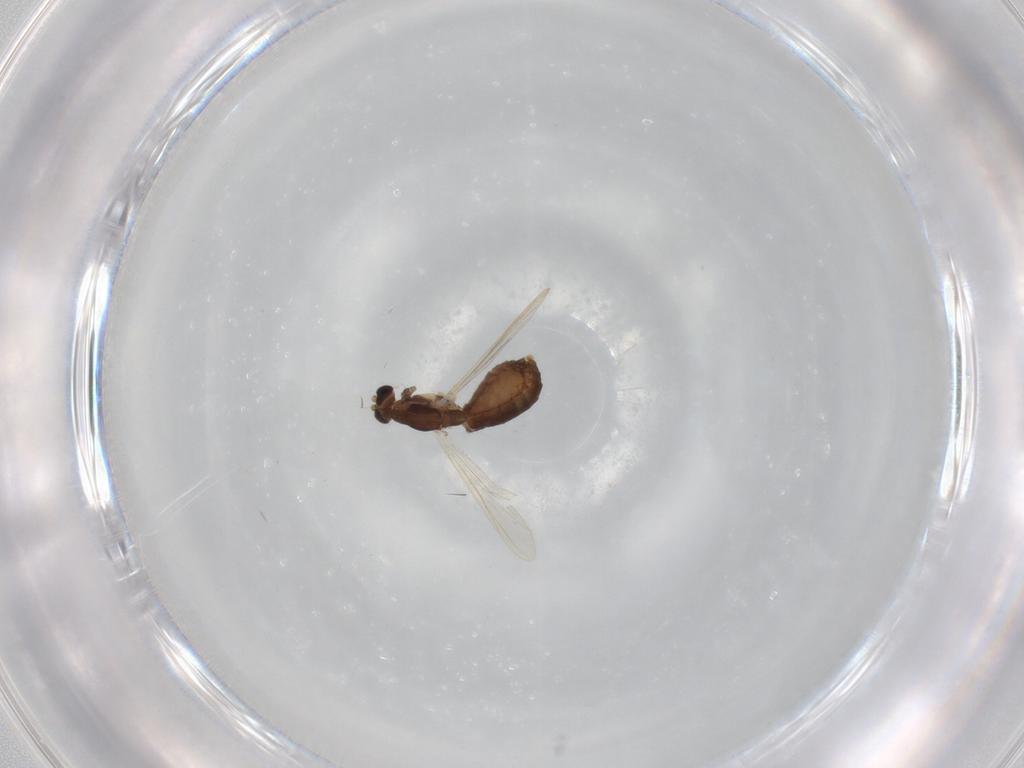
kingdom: Animalia
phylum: Arthropoda
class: Insecta
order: Diptera
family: Chironomidae
